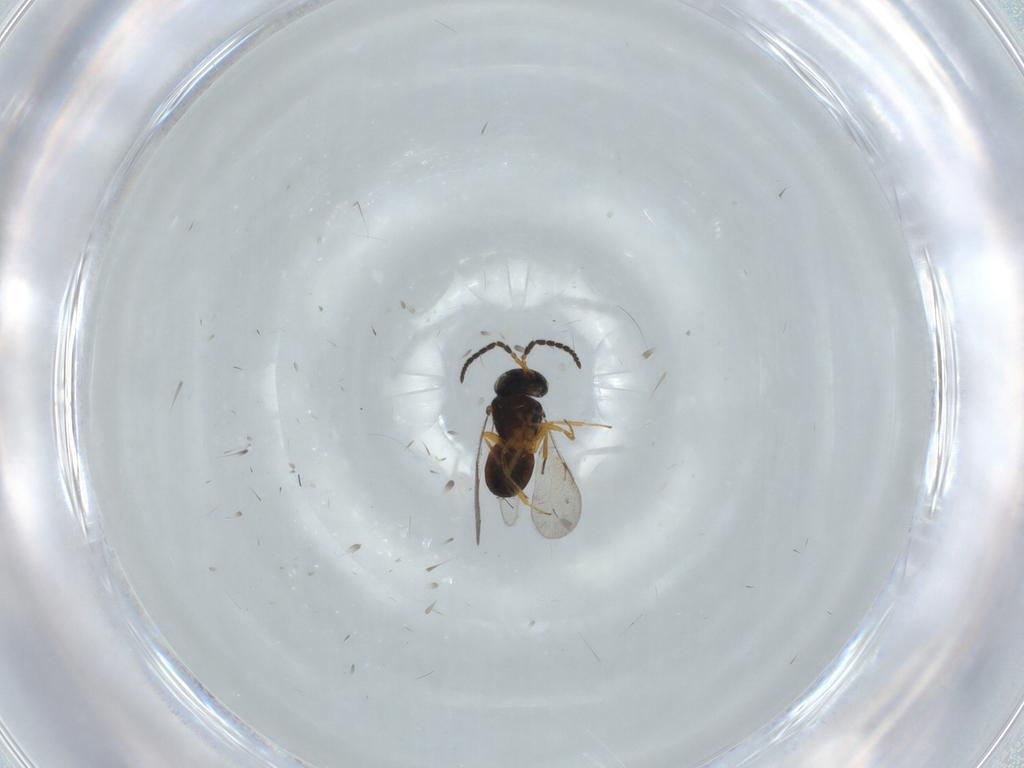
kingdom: Animalia
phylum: Arthropoda
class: Insecta
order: Coleoptera
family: Curculionidae
